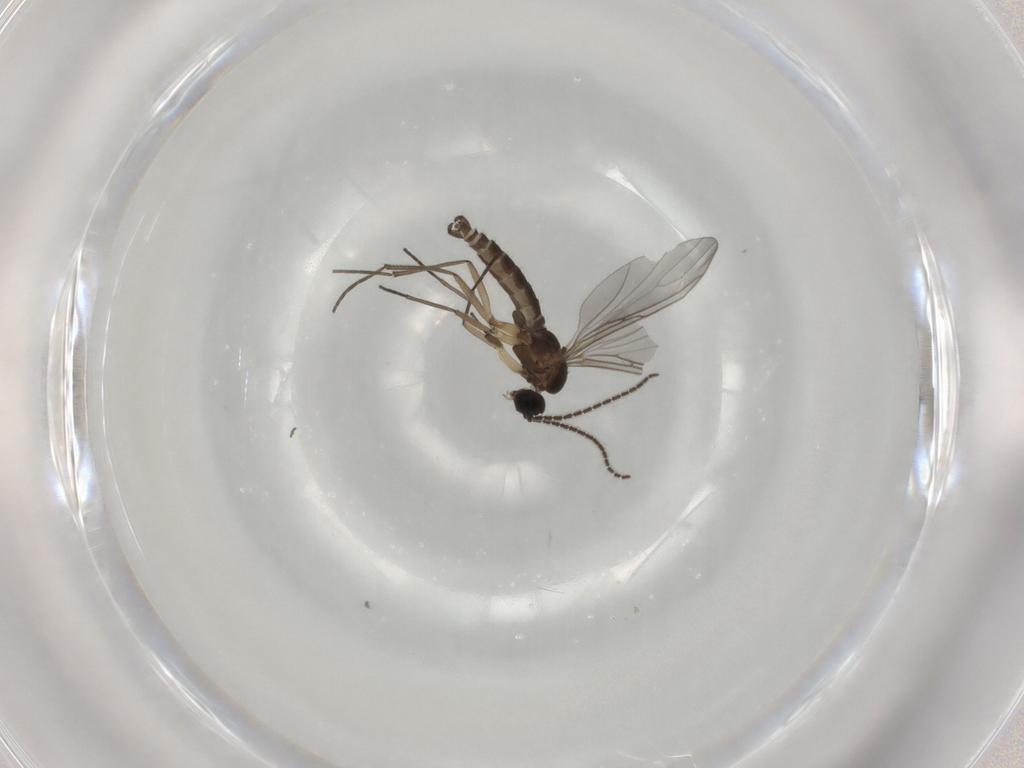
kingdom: Animalia
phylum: Arthropoda
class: Insecta
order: Diptera
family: Sciaridae
